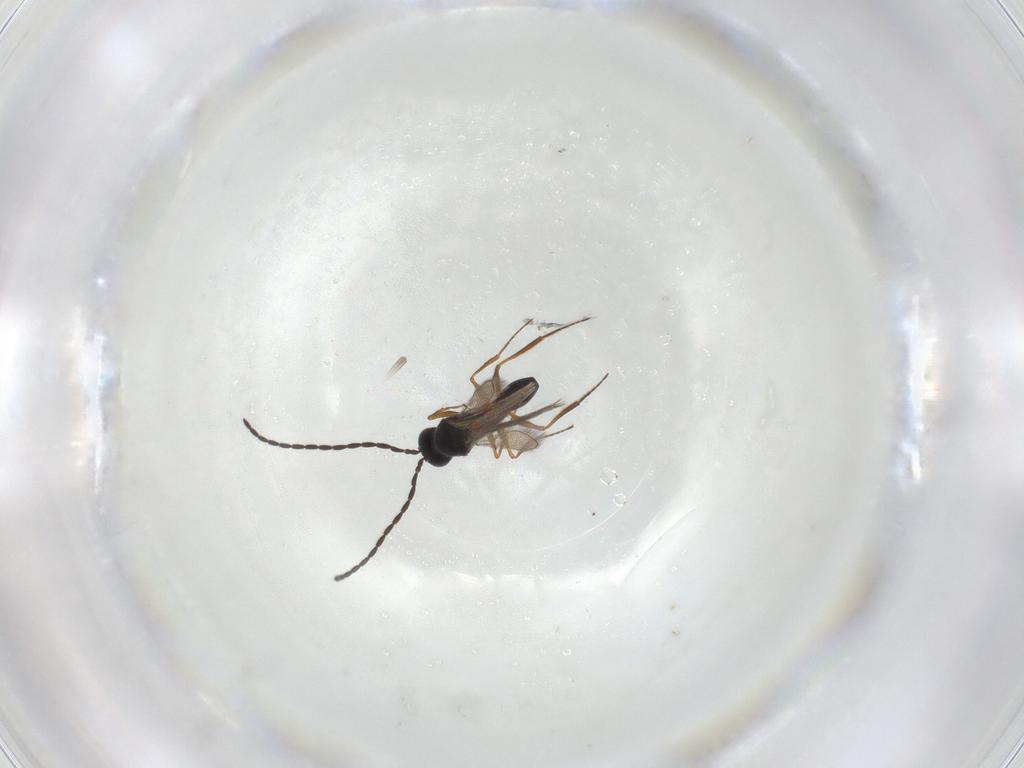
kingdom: Animalia
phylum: Arthropoda
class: Insecta
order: Hymenoptera
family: Figitidae
